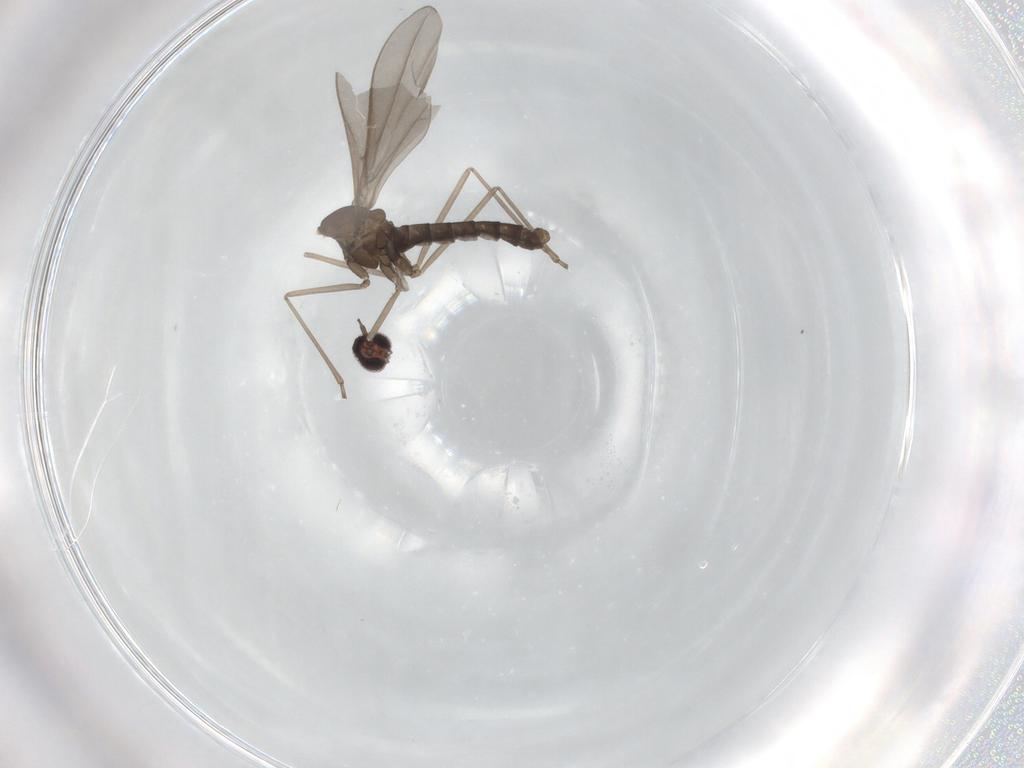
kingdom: Animalia
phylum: Arthropoda
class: Insecta
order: Diptera
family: Cecidomyiidae
